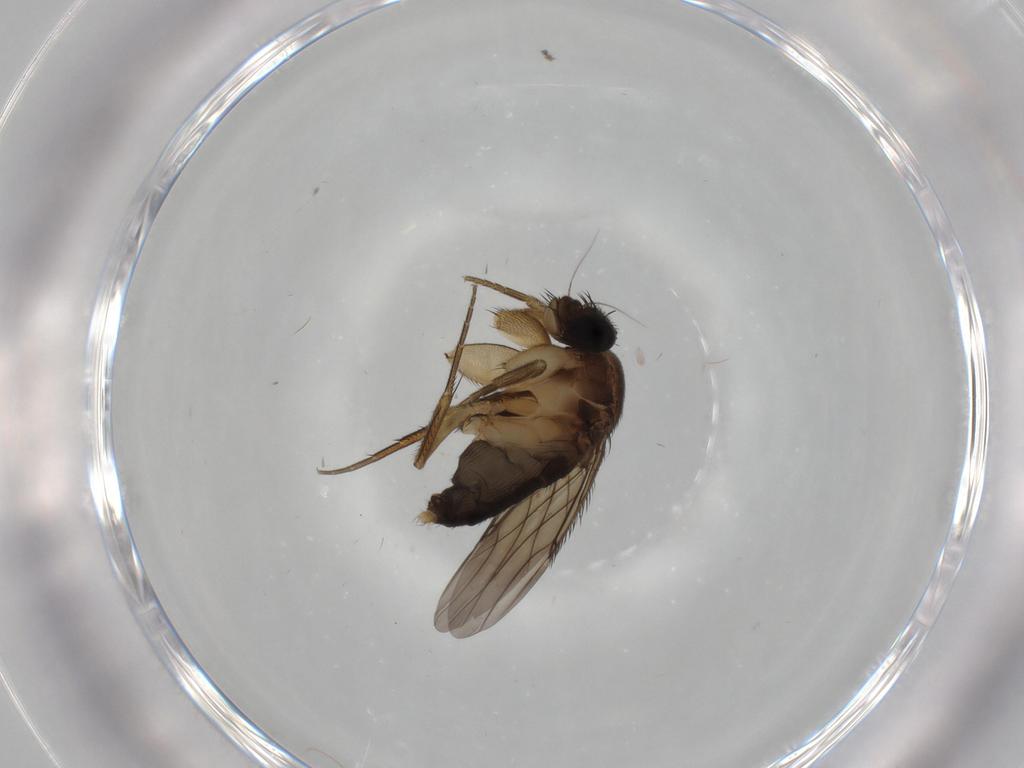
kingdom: Animalia
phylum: Arthropoda
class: Insecta
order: Diptera
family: Phoridae
